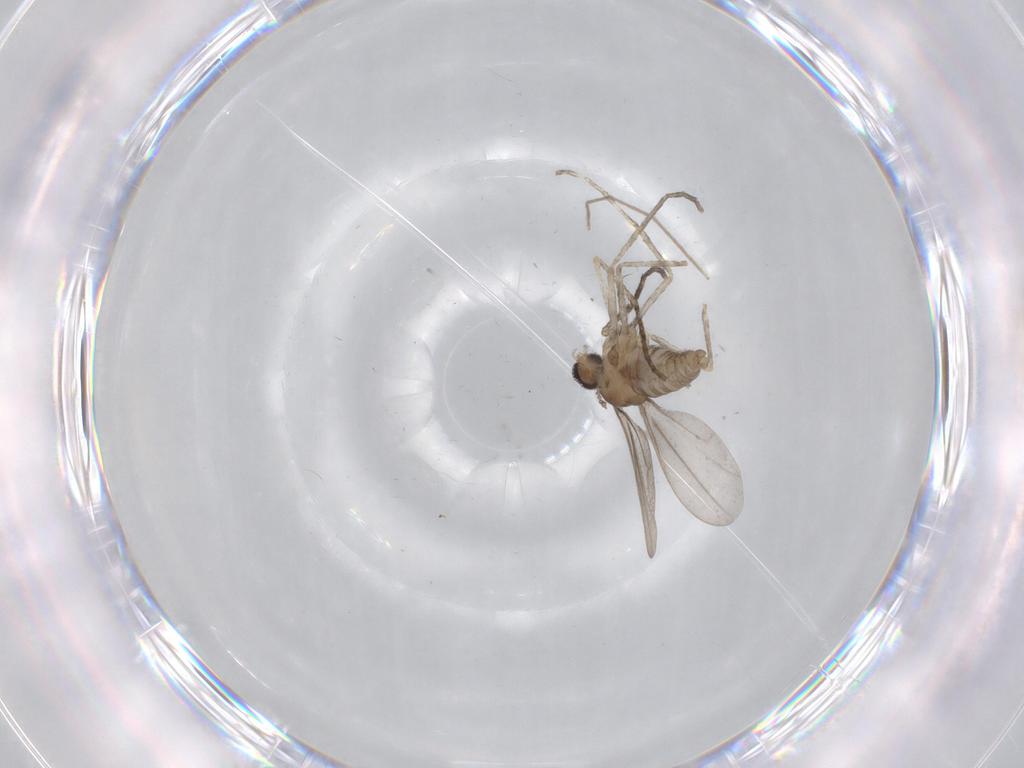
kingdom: Animalia
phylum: Arthropoda
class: Insecta
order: Diptera
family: Cecidomyiidae
